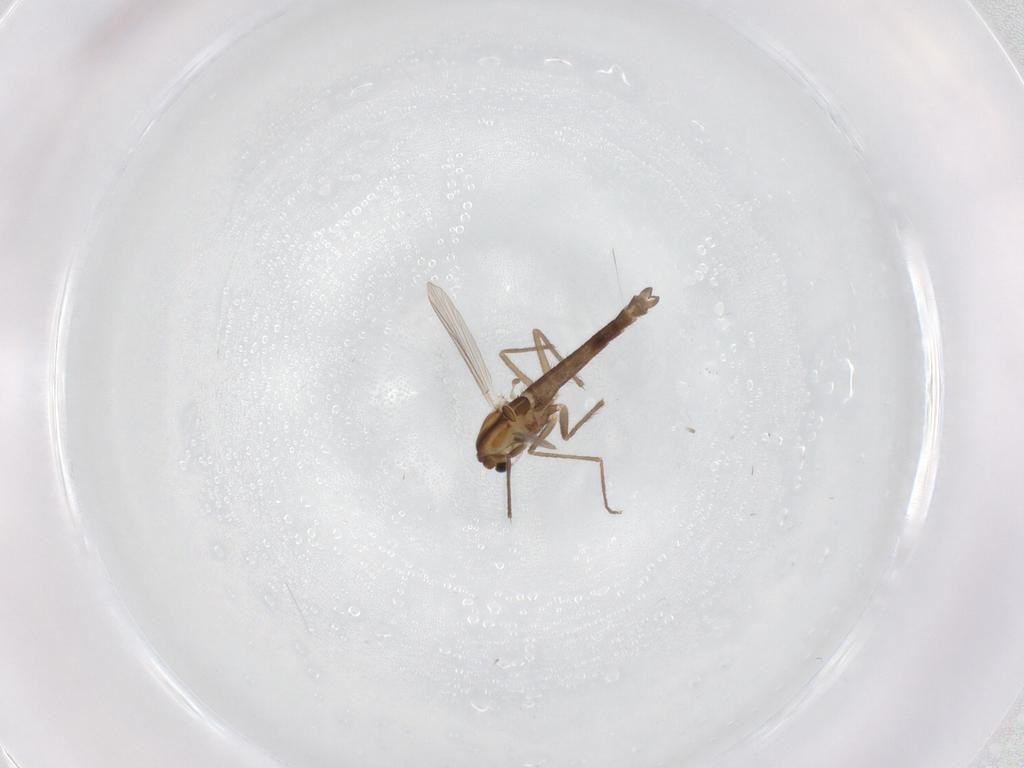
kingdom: Animalia
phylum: Arthropoda
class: Insecta
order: Diptera
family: Chironomidae
